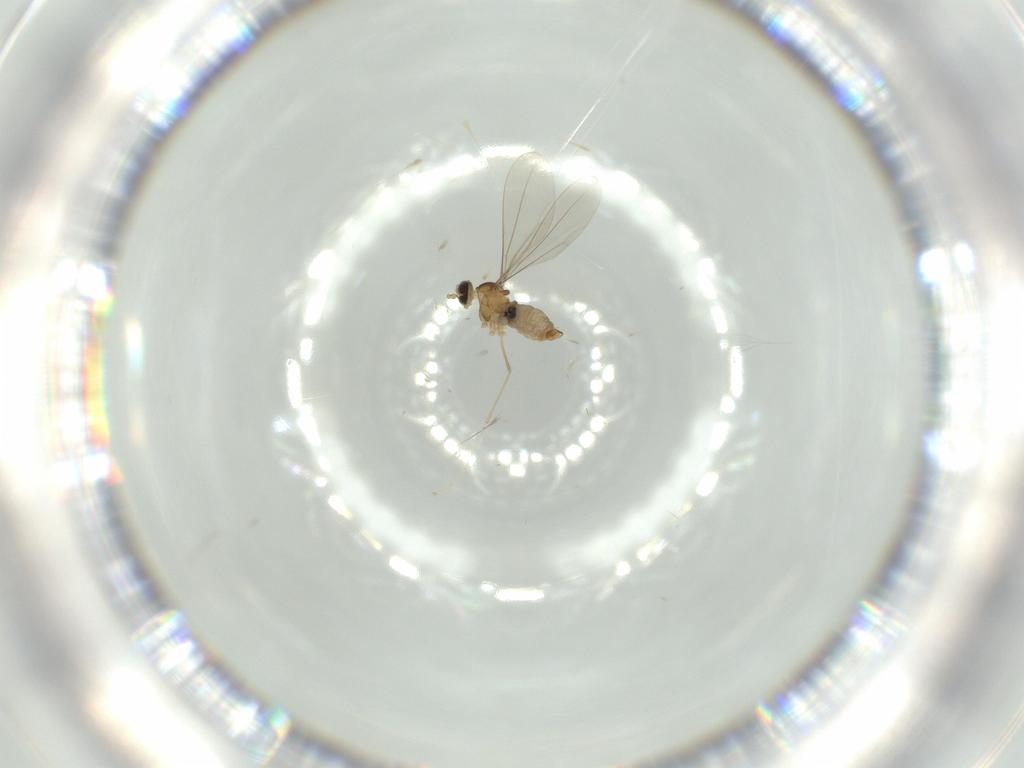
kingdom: Animalia
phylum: Arthropoda
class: Insecta
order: Diptera
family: Cecidomyiidae
